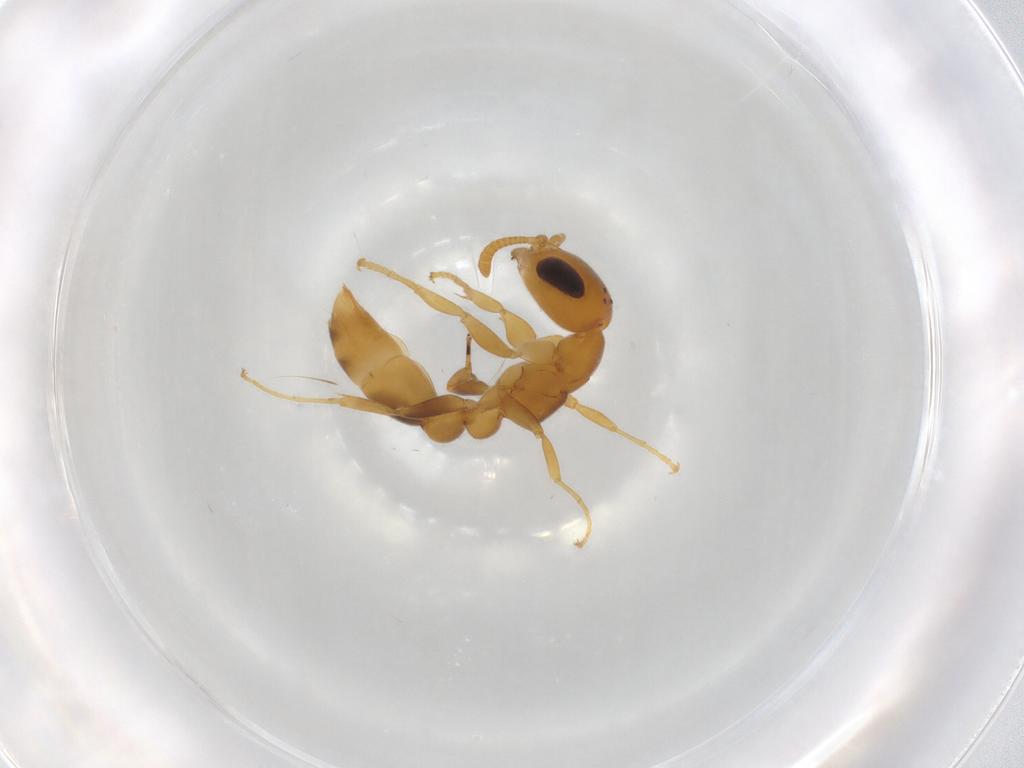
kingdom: Animalia
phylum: Arthropoda
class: Insecta
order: Hymenoptera
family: Formicidae
